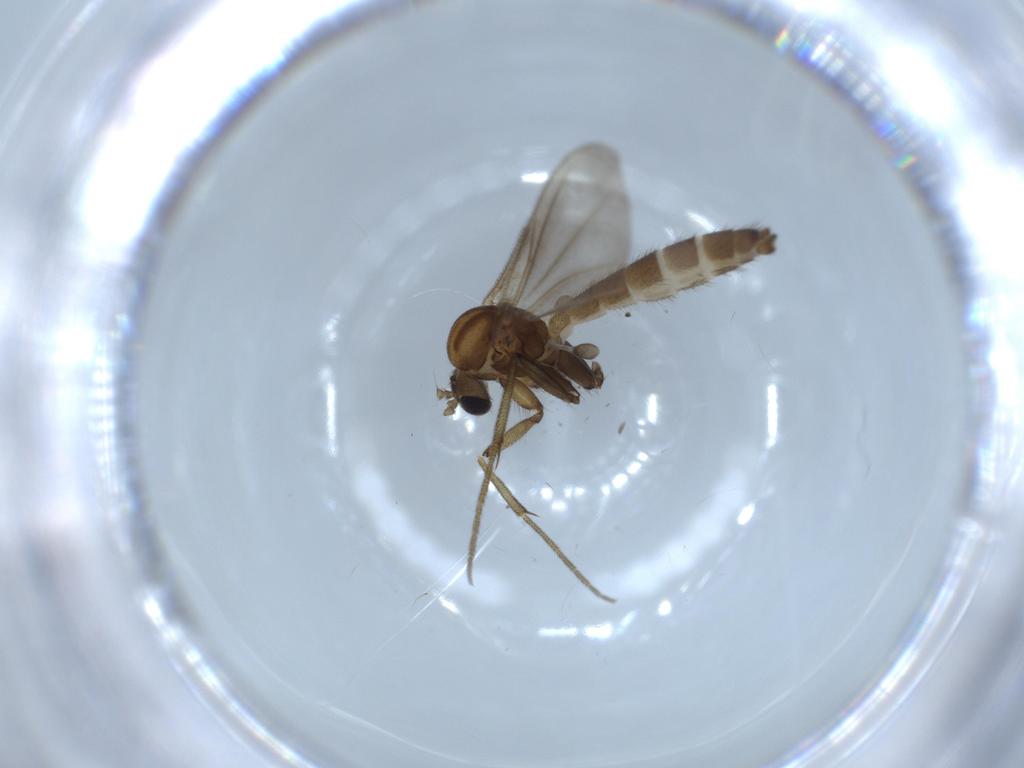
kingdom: Animalia
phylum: Arthropoda
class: Insecta
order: Diptera
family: Mycetophilidae
